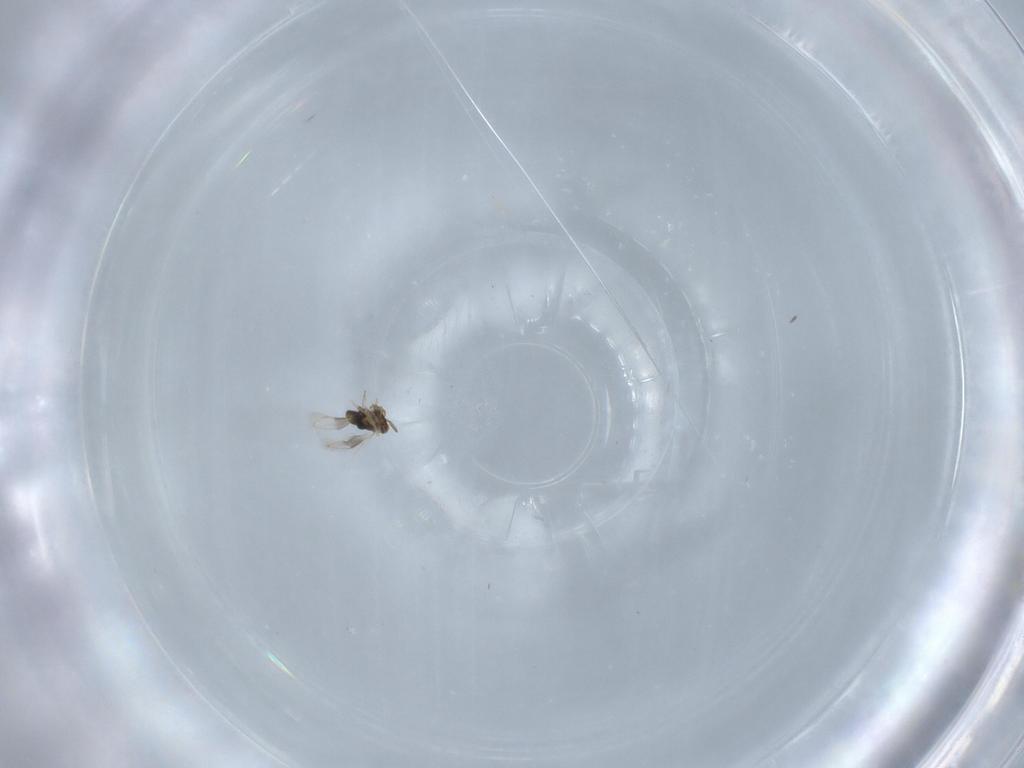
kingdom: Animalia
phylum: Arthropoda
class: Insecta
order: Hymenoptera
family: Aphelinidae
